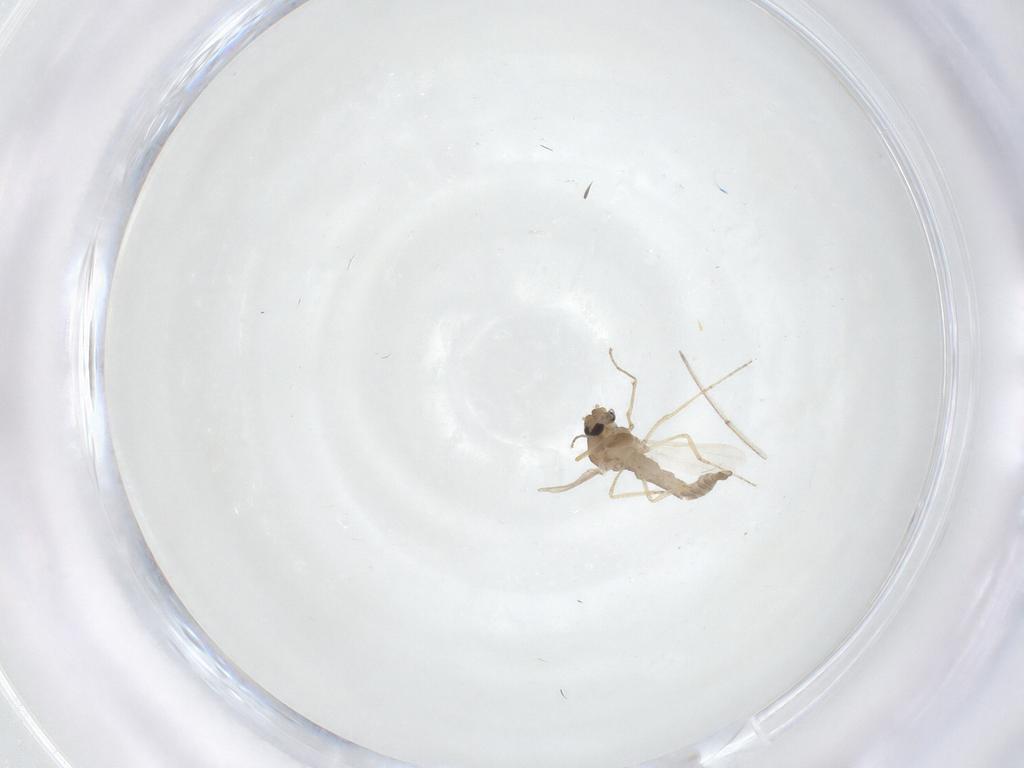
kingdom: Animalia
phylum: Arthropoda
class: Insecta
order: Diptera
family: Ceratopogonidae
